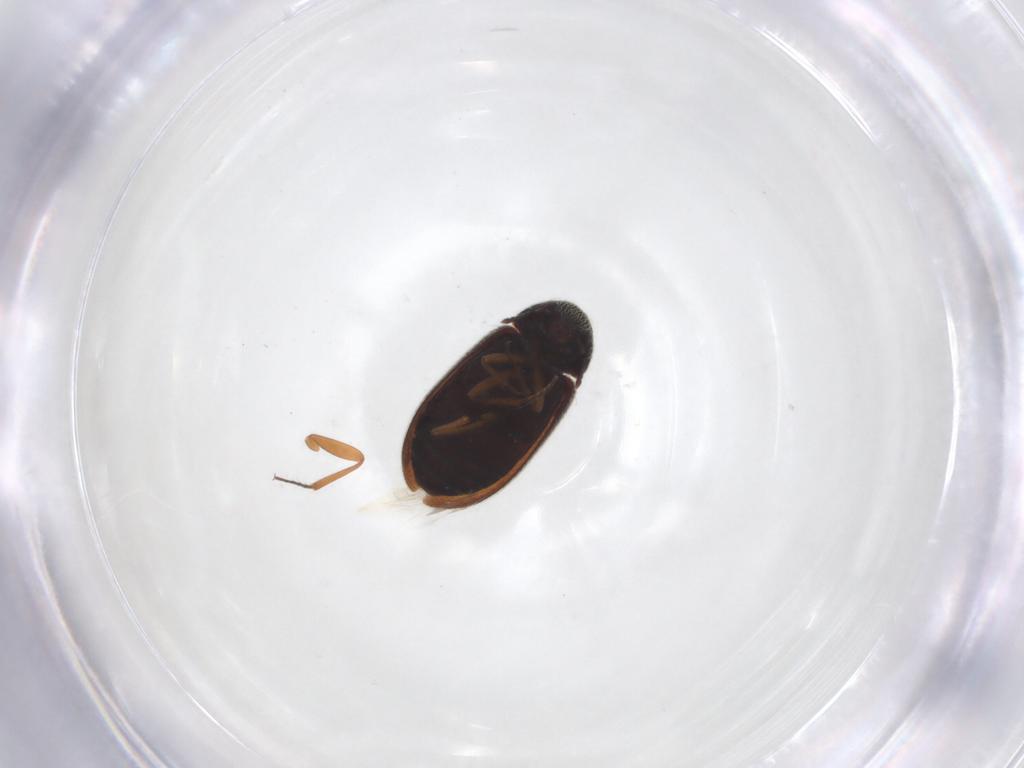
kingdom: Animalia
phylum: Arthropoda
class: Insecta
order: Coleoptera
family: Rhadalidae
